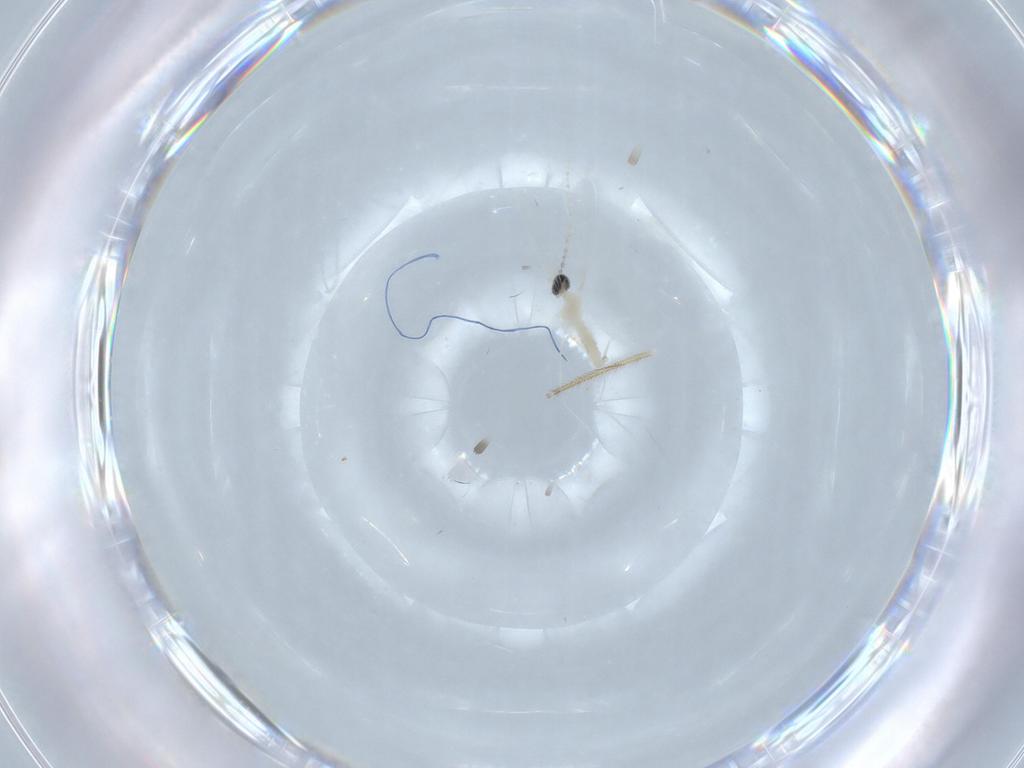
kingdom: Animalia
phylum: Arthropoda
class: Insecta
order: Diptera
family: Cecidomyiidae
